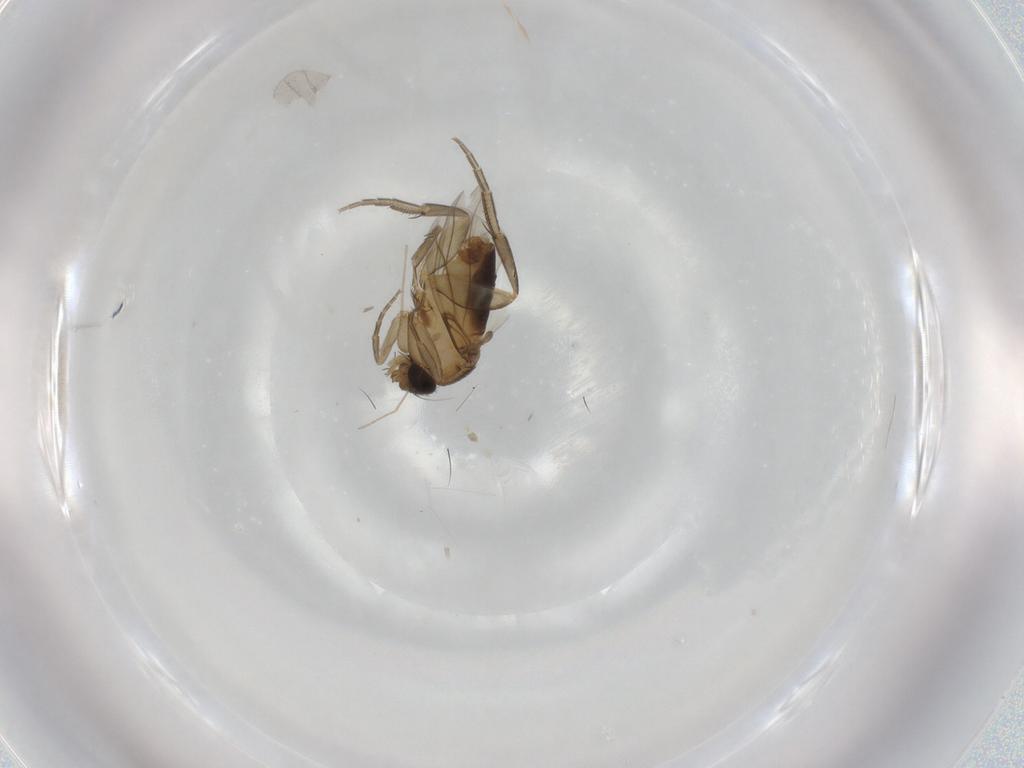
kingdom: Animalia
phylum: Arthropoda
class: Insecta
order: Diptera
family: Phoridae
